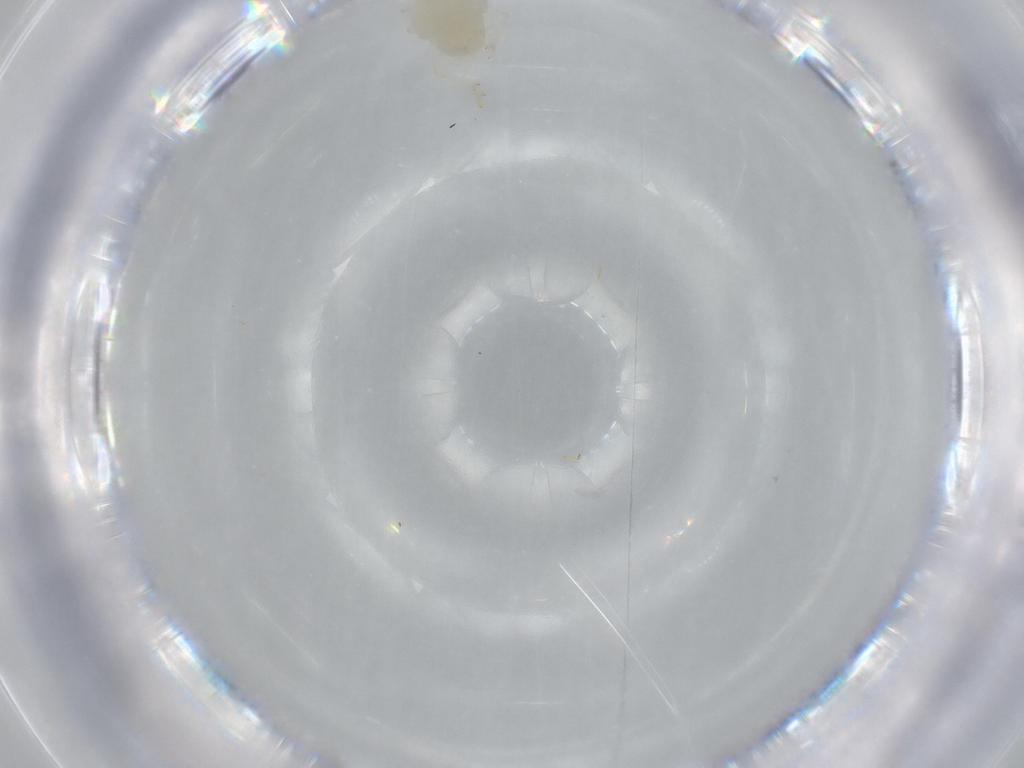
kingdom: Animalia
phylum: Arthropoda
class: Insecta
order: Hemiptera
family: Flatidae
